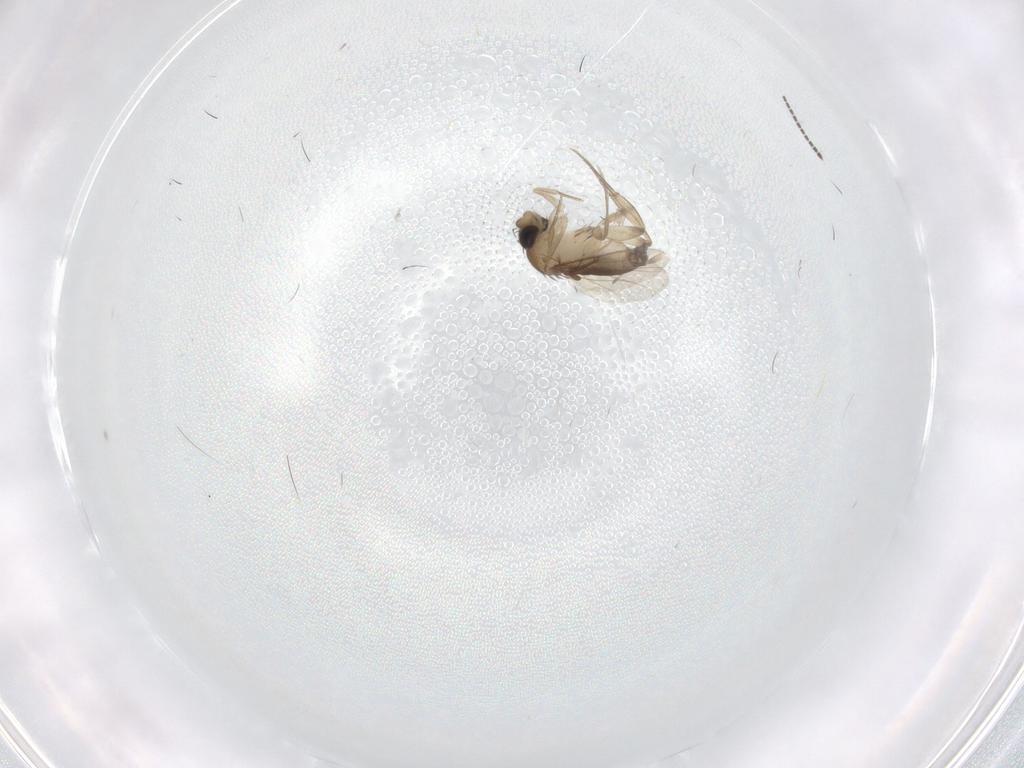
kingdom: Animalia
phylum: Arthropoda
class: Insecta
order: Diptera
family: Phoridae
